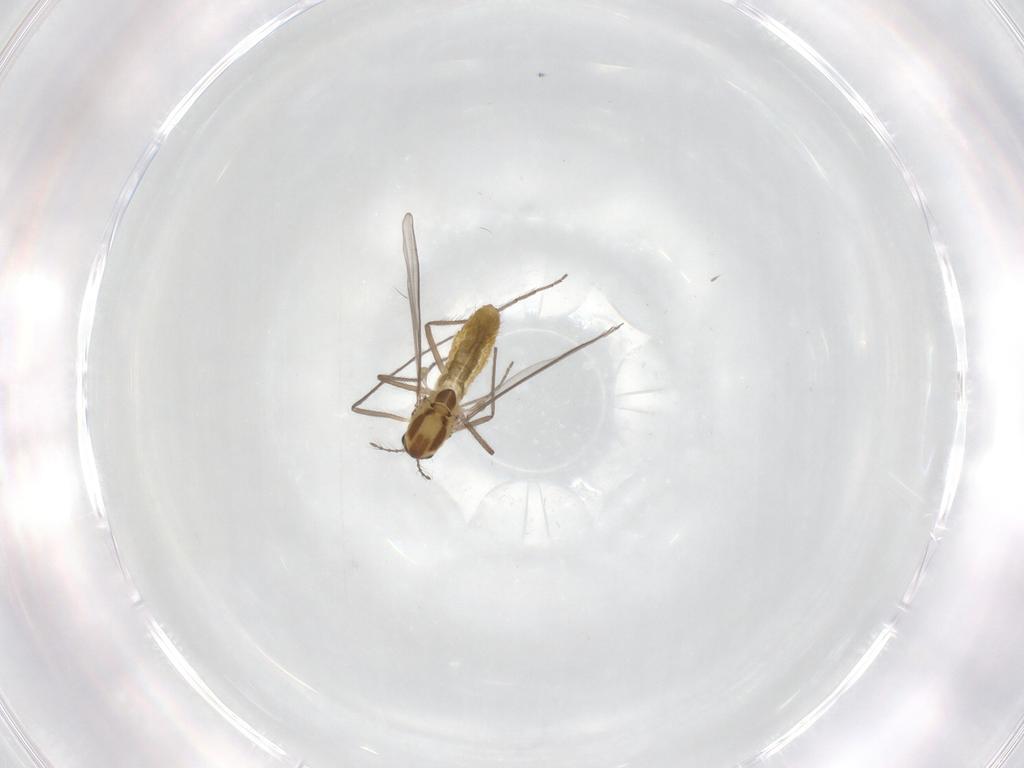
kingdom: Animalia
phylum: Arthropoda
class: Insecta
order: Diptera
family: Chironomidae
